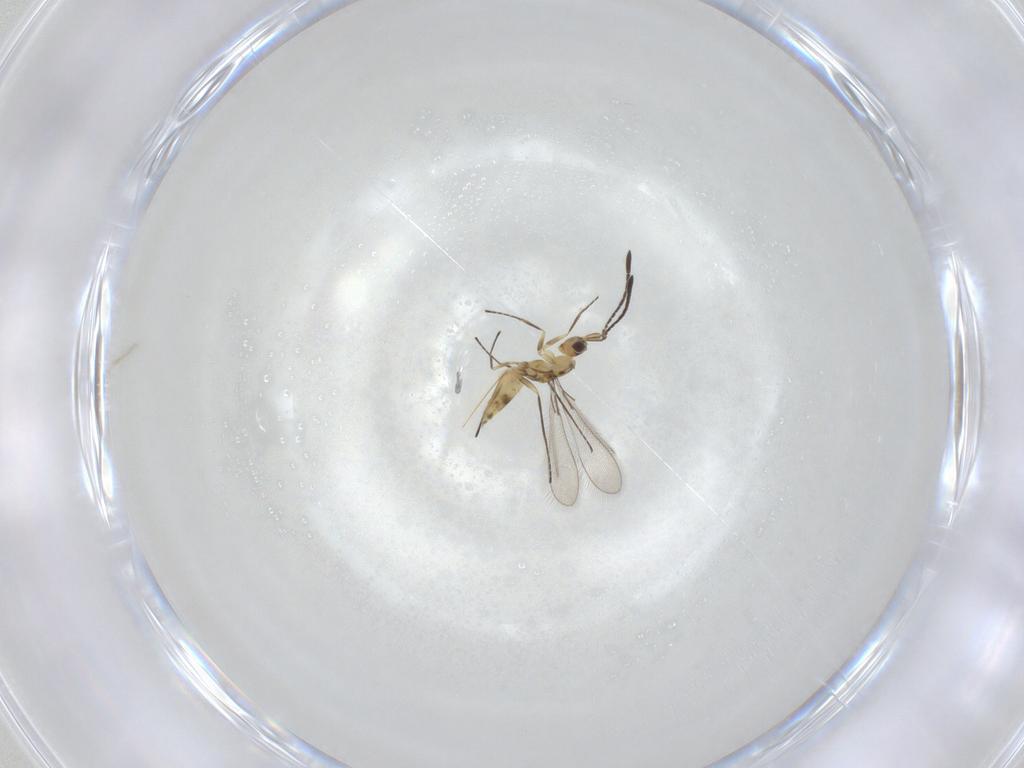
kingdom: Animalia
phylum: Arthropoda
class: Insecta
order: Hymenoptera
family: Mymaridae
